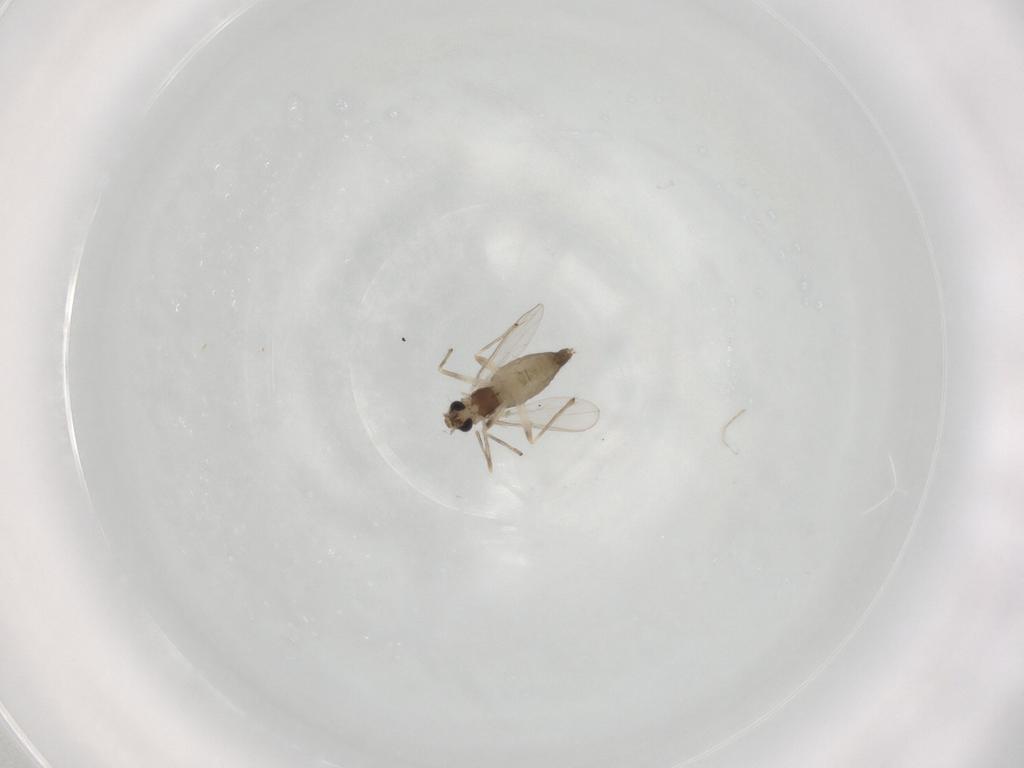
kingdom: Animalia
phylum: Arthropoda
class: Insecta
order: Diptera
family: Chironomidae
